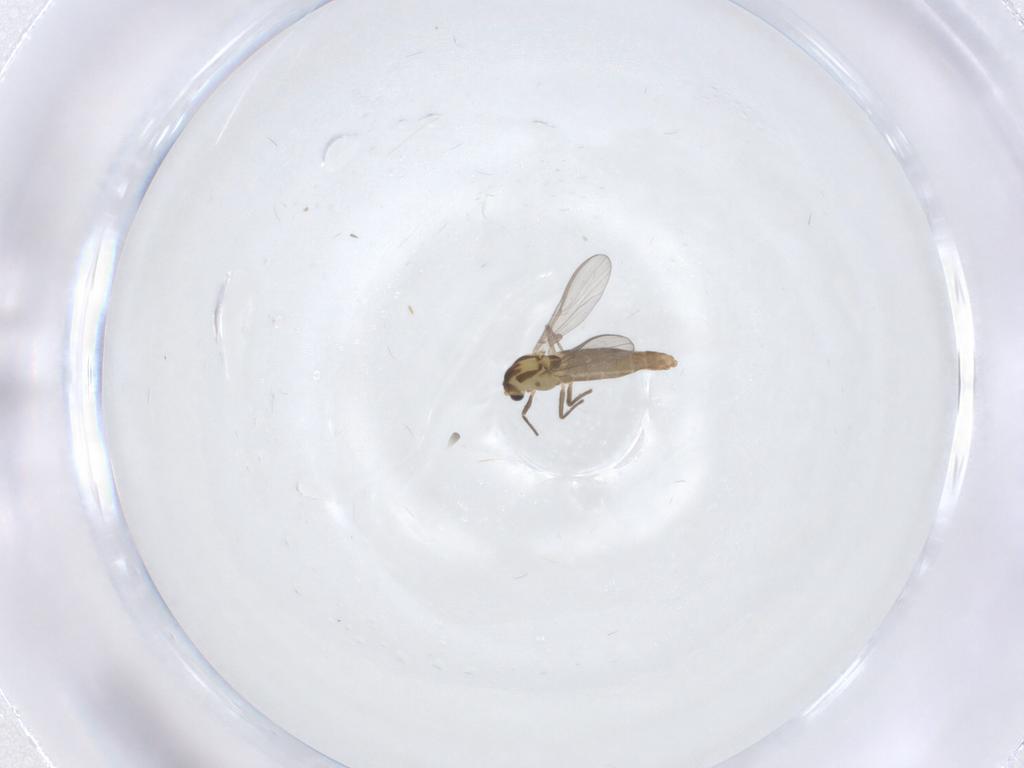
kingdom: Animalia
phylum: Arthropoda
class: Insecta
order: Diptera
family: Empididae
